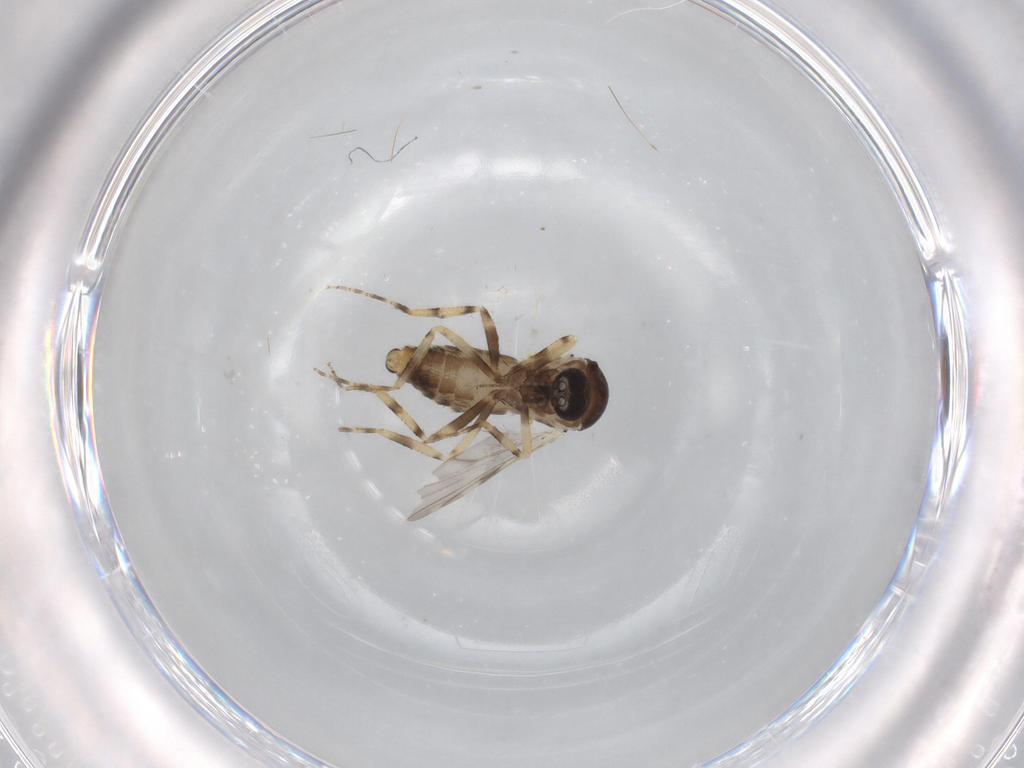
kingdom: Animalia
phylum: Arthropoda
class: Insecta
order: Diptera
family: Ceratopogonidae
